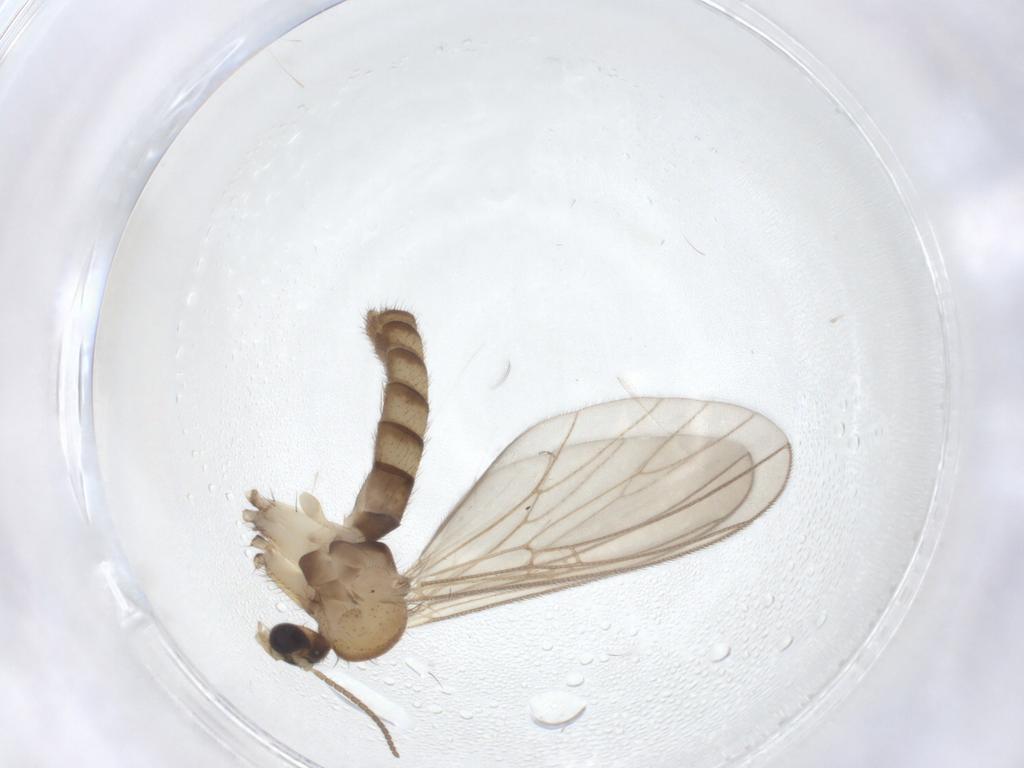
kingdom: Animalia
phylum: Arthropoda
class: Insecta
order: Diptera
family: Mycetophilidae
